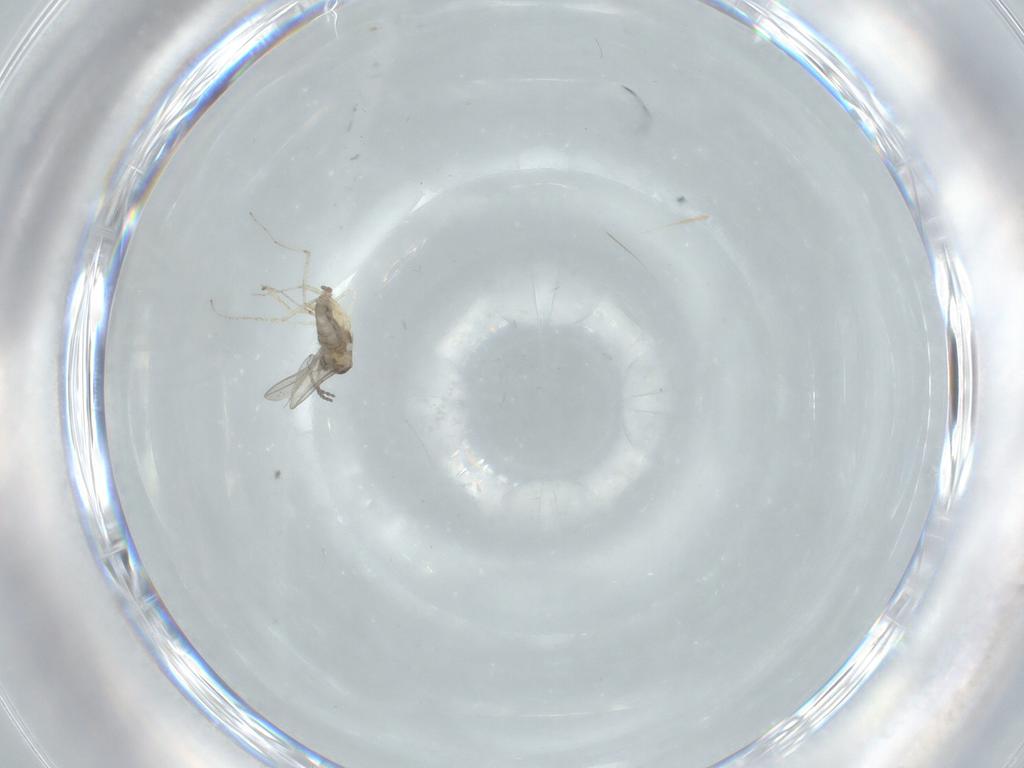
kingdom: Animalia
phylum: Arthropoda
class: Insecta
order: Diptera
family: Cecidomyiidae
